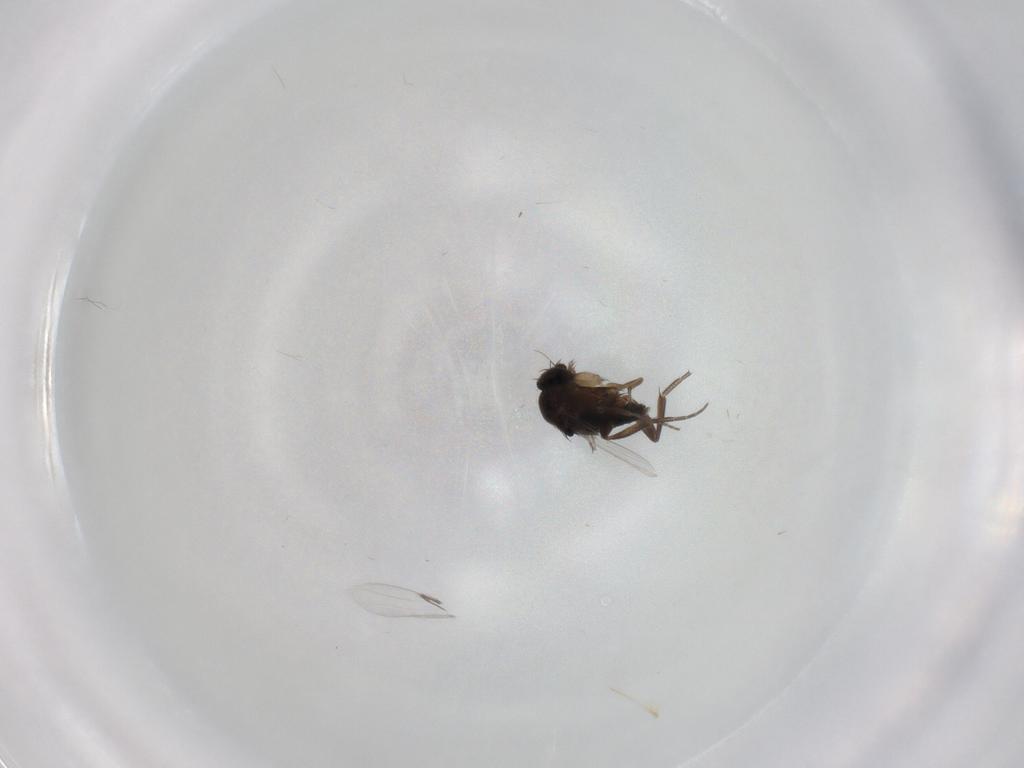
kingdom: Animalia
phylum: Arthropoda
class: Insecta
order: Diptera
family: Phoridae
